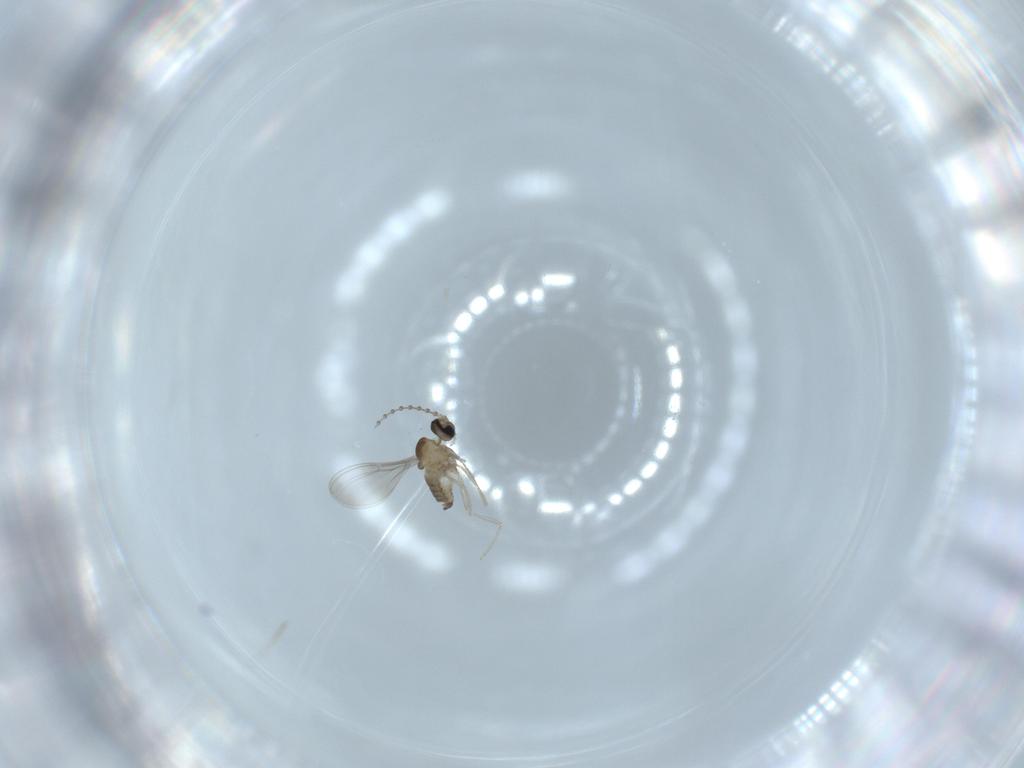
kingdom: Animalia
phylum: Arthropoda
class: Insecta
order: Diptera
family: Cecidomyiidae
